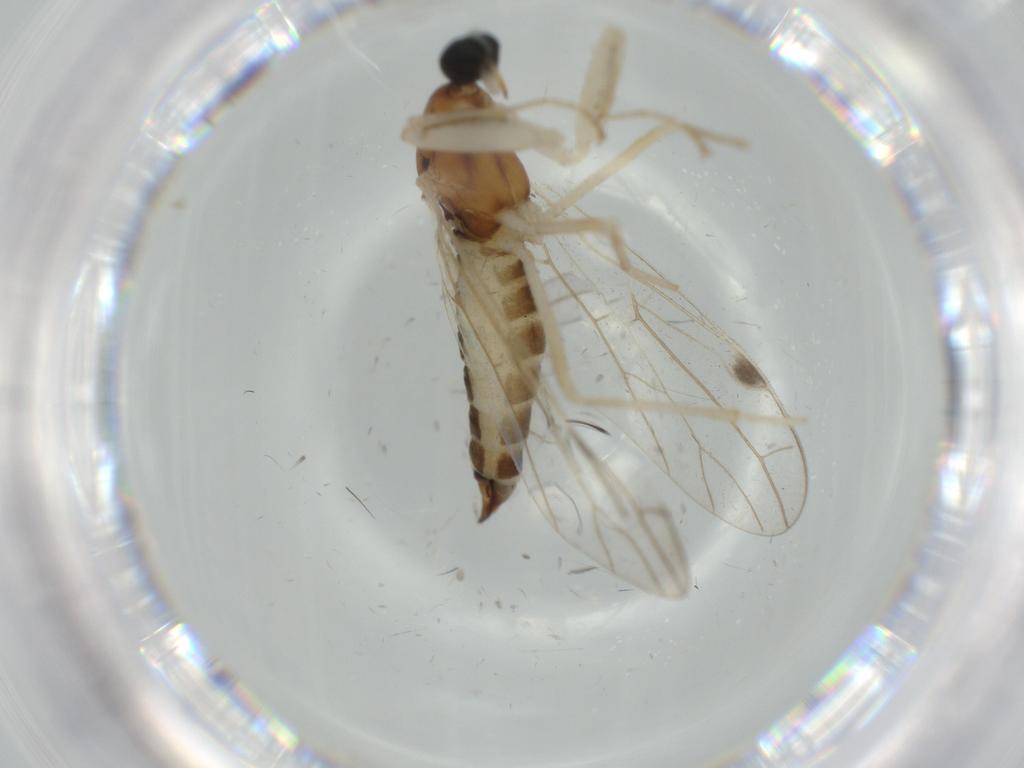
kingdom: Animalia
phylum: Arthropoda
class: Insecta
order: Diptera
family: Empididae
